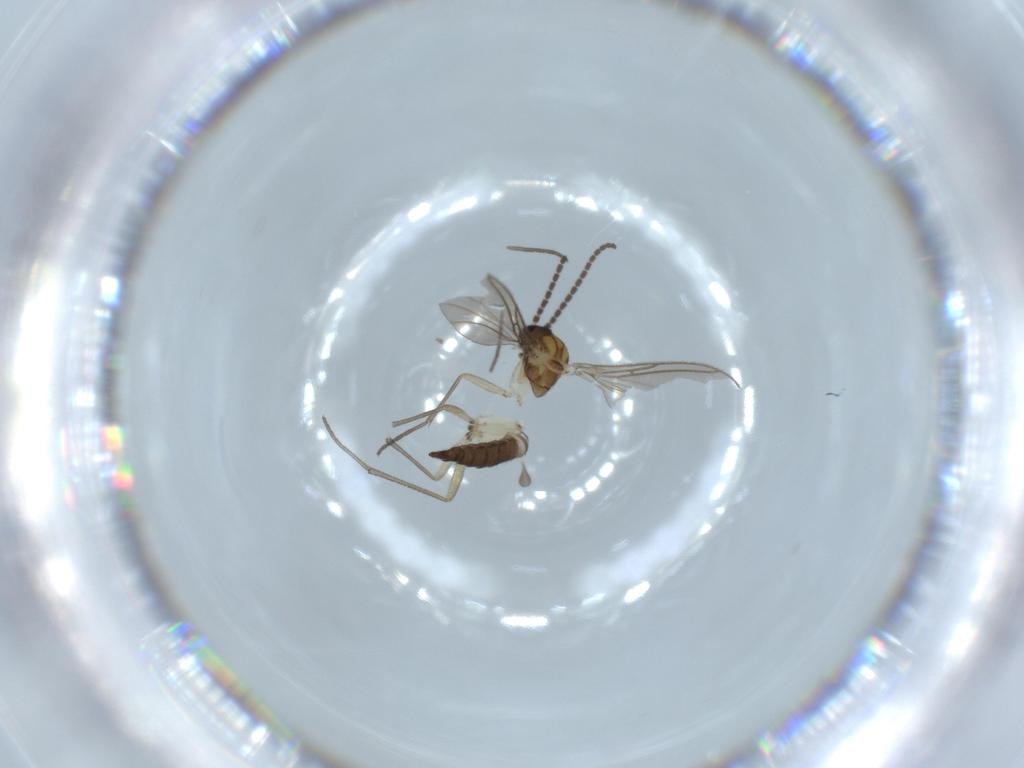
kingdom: Animalia
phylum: Arthropoda
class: Insecta
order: Diptera
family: Sciaridae
